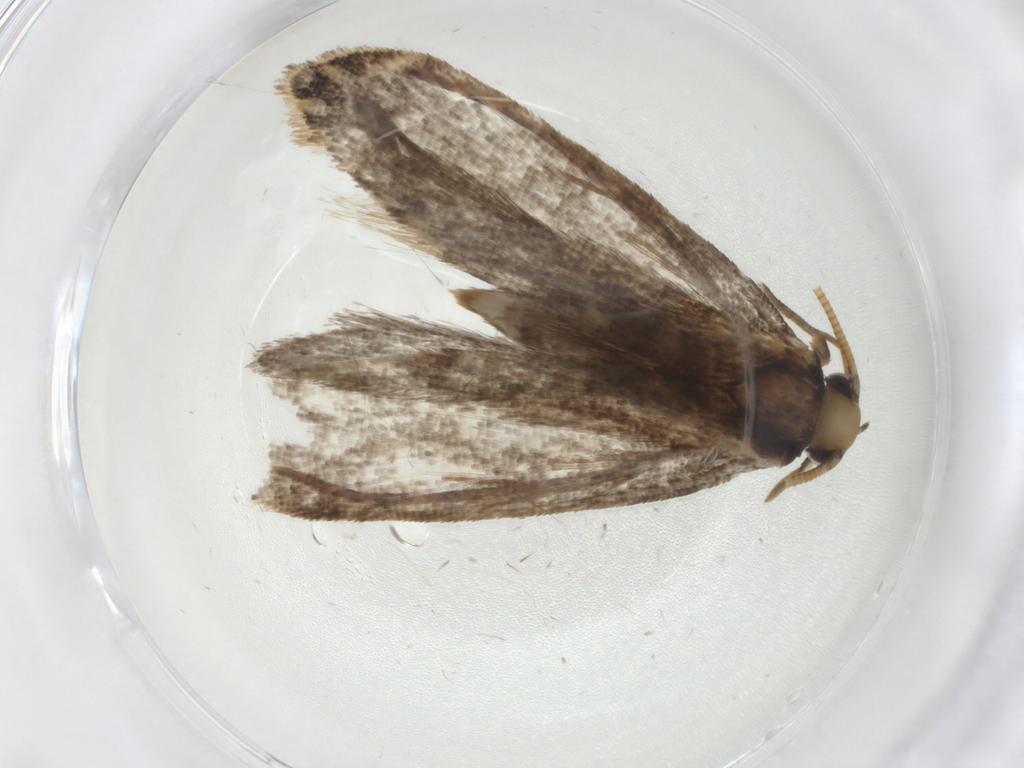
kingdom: Animalia
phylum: Arthropoda
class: Insecta
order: Lepidoptera
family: Tineidae
